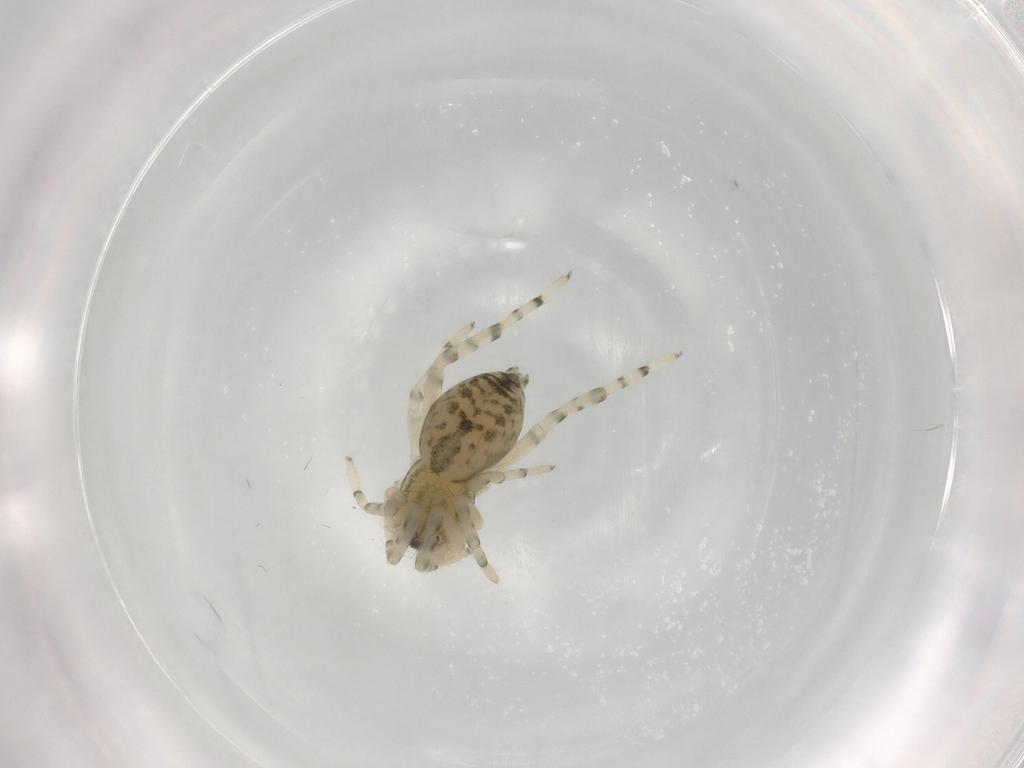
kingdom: Animalia
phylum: Arthropoda
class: Arachnida
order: Araneae
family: Trachelidae
